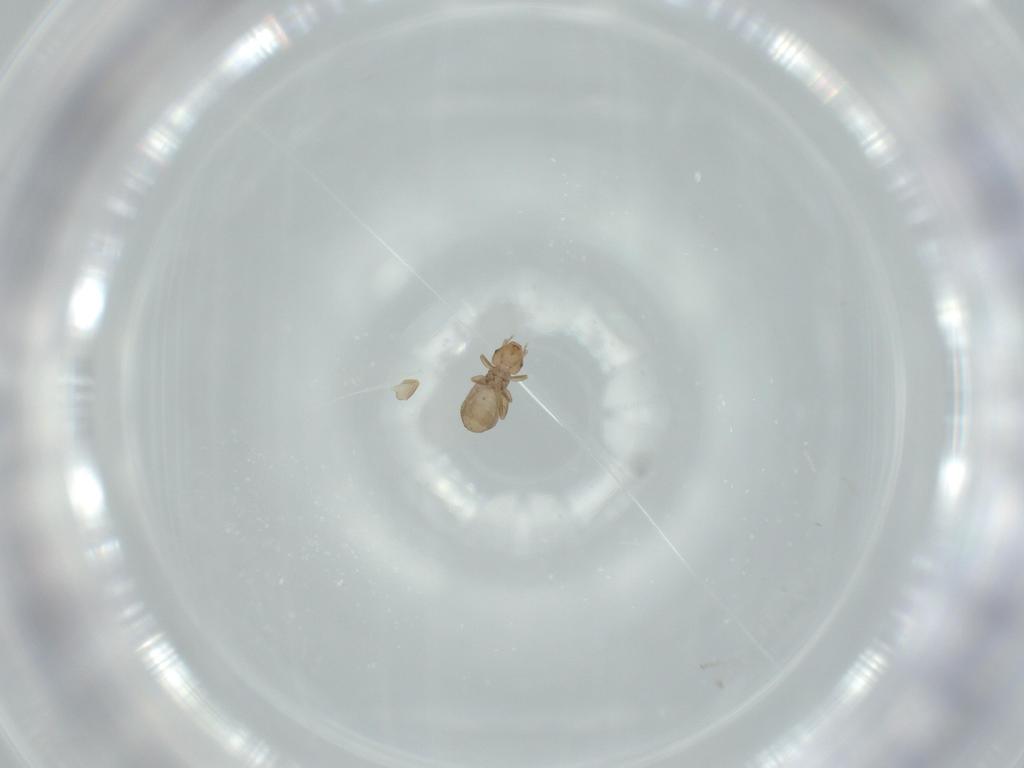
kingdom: Animalia
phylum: Arthropoda
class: Insecta
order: Psocodea
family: Liposcelididae
